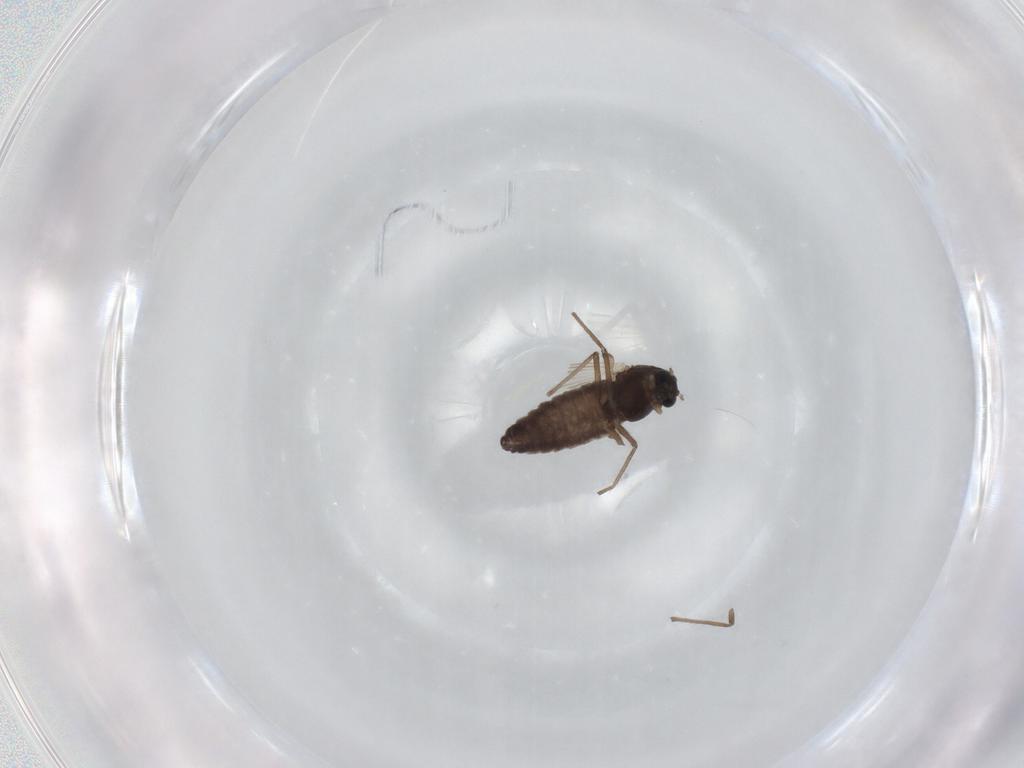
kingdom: Animalia
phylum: Arthropoda
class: Insecta
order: Diptera
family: Chironomidae
